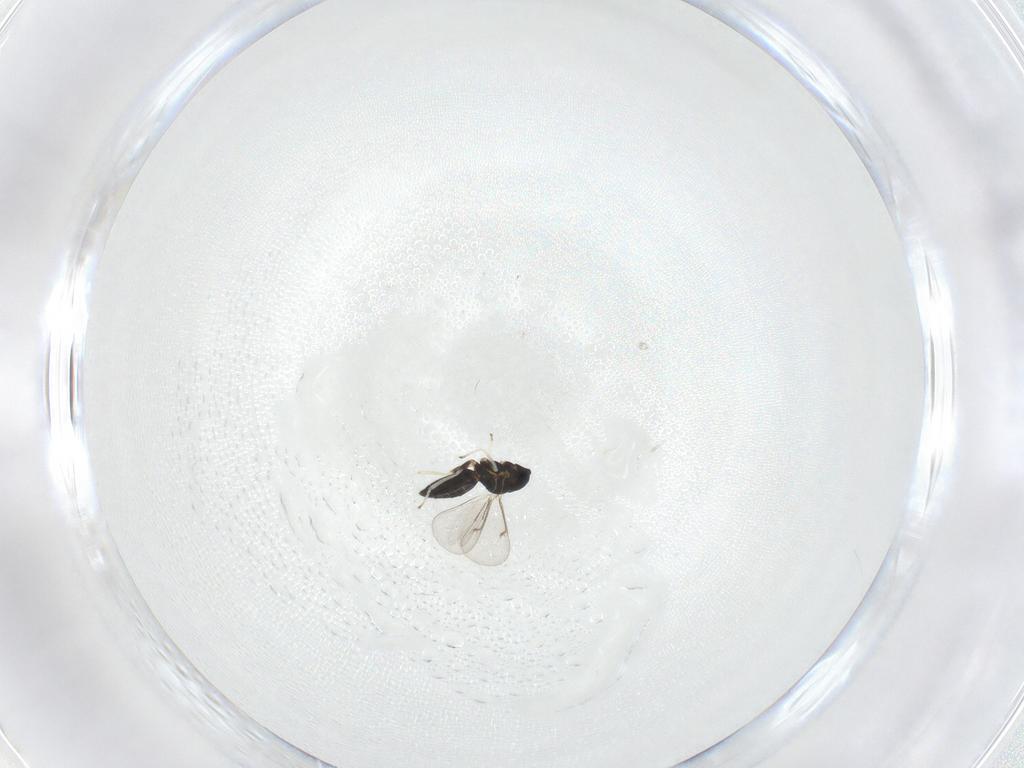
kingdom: Animalia
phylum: Arthropoda
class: Insecta
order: Hymenoptera
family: Eulophidae
